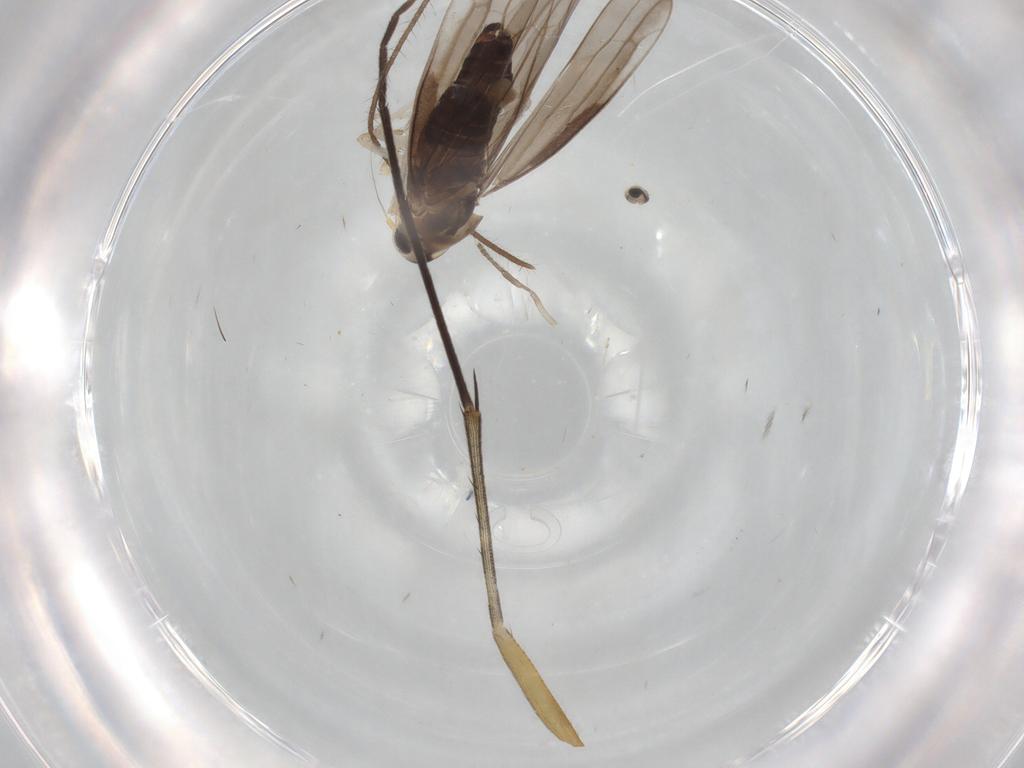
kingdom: Animalia
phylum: Arthropoda
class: Insecta
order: Hemiptera
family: Cicadellidae
